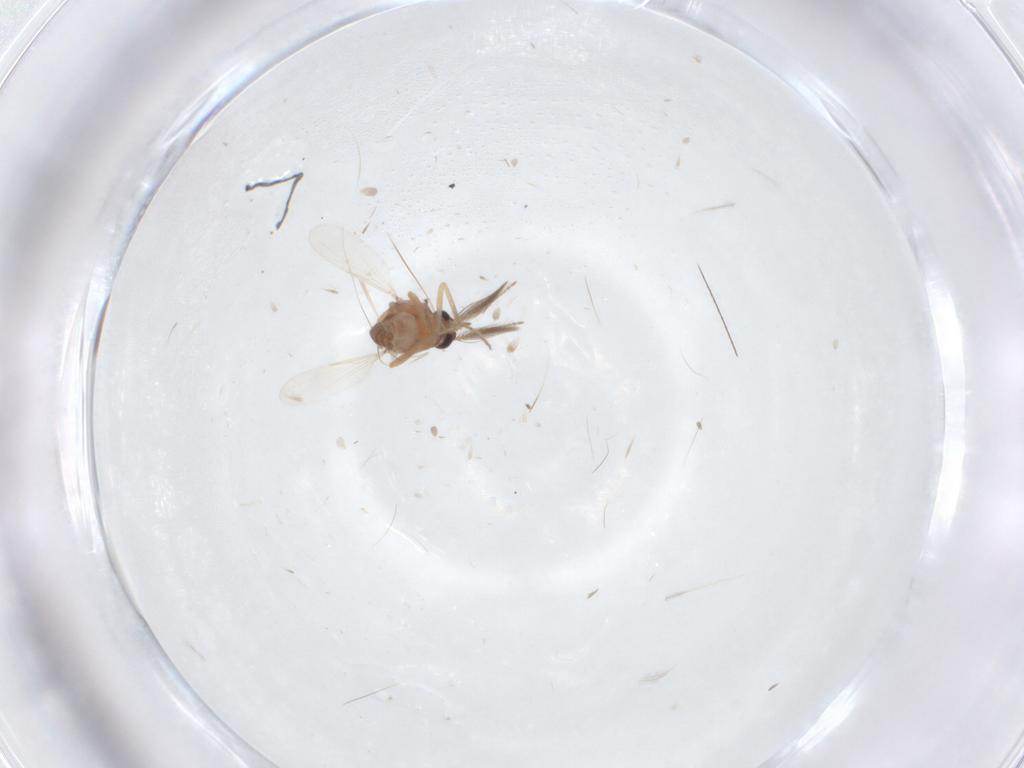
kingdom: Animalia
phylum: Arthropoda
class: Insecta
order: Diptera
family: Ceratopogonidae
